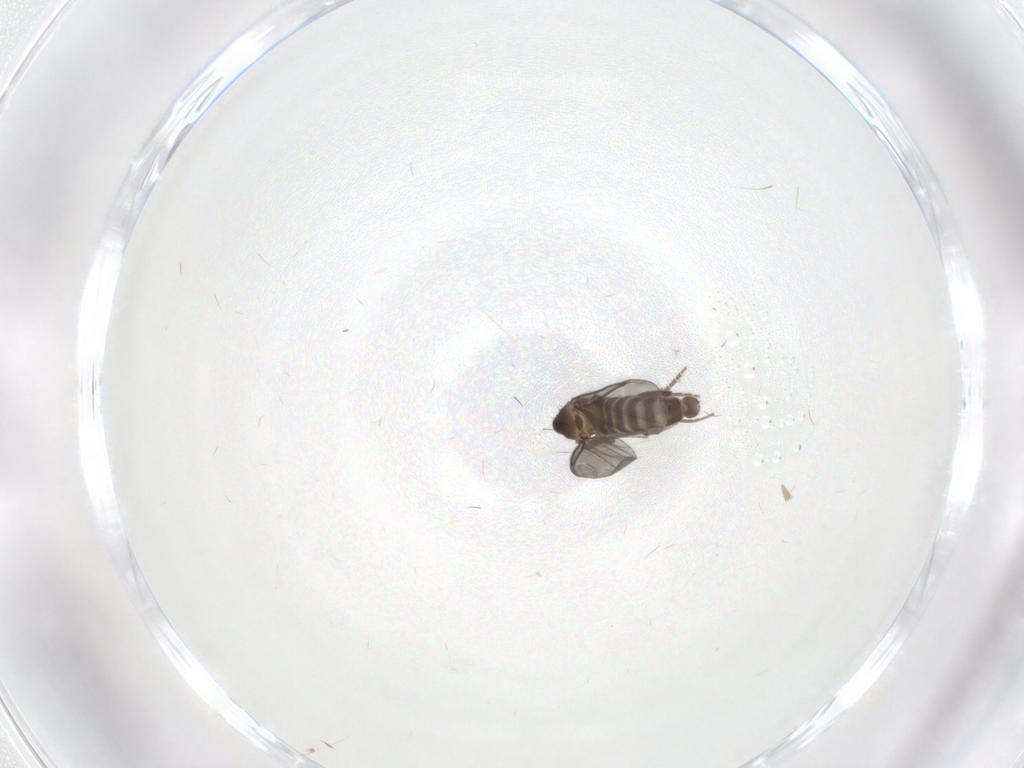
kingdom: Animalia
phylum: Arthropoda
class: Insecta
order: Diptera
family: Phoridae
